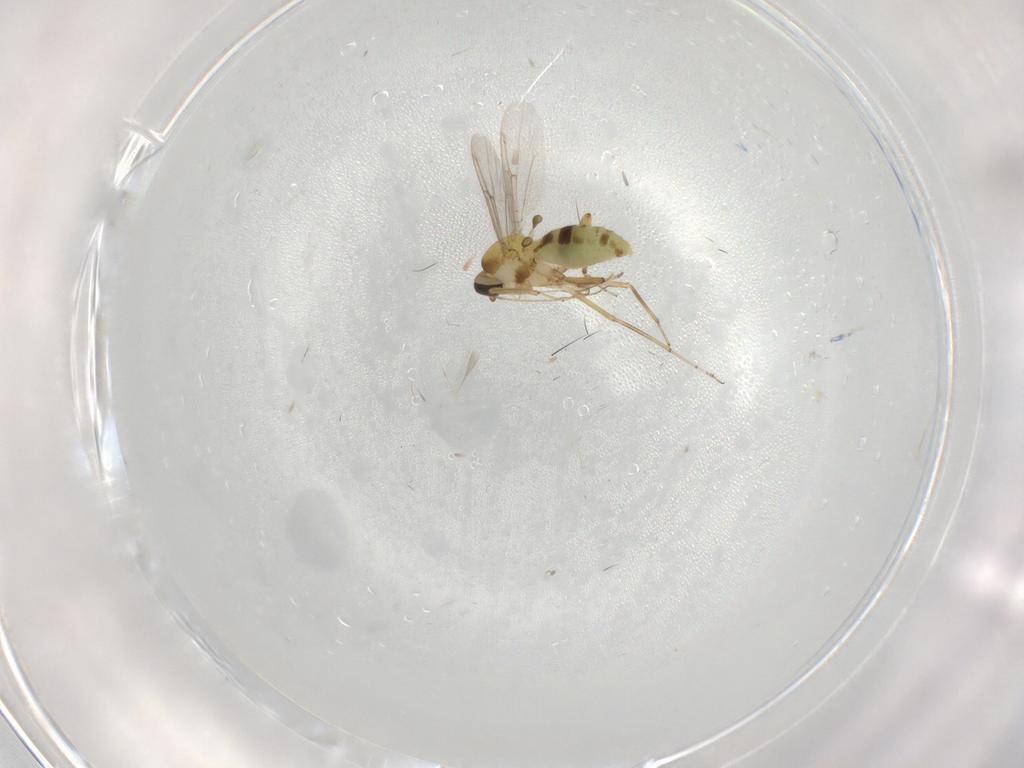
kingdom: Animalia
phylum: Arthropoda
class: Insecta
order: Diptera
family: Ceratopogonidae
